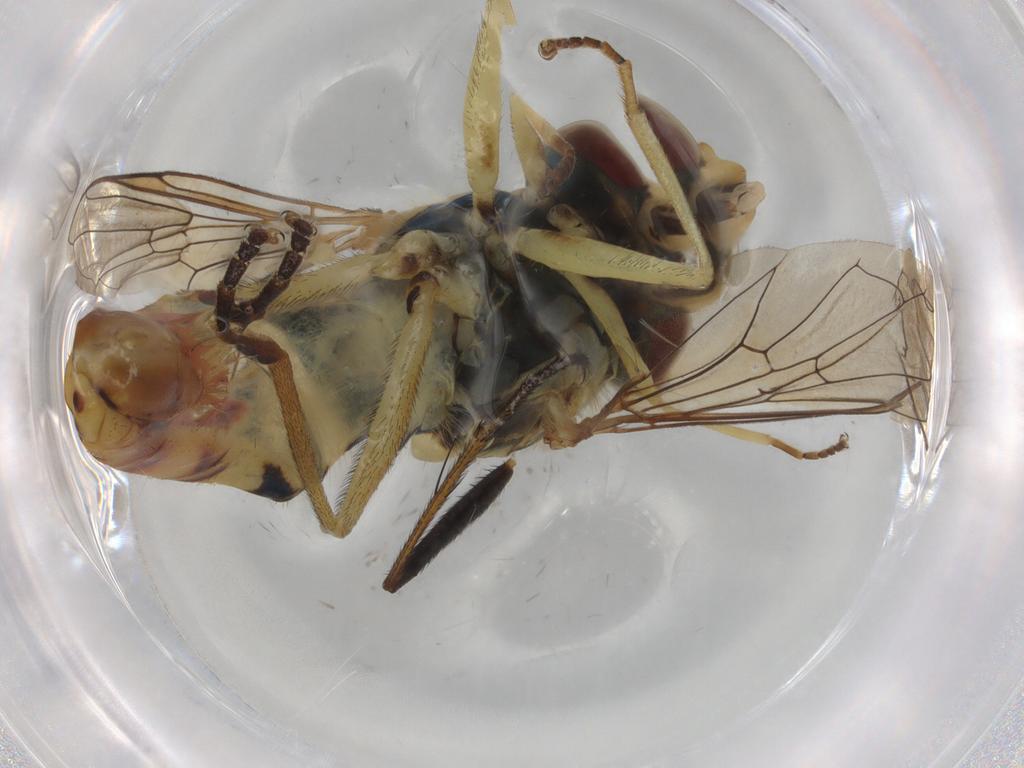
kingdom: Animalia
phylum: Arthropoda
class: Insecta
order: Diptera
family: Sciaridae
